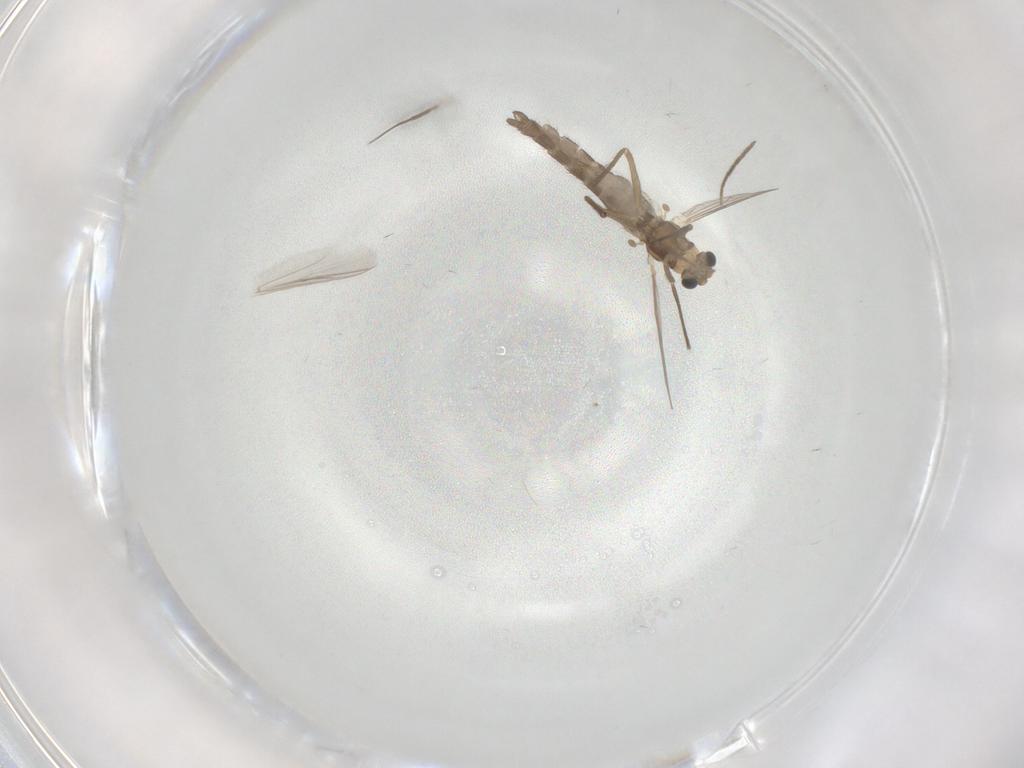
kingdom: Animalia
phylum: Arthropoda
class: Insecta
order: Diptera
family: Chironomidae
